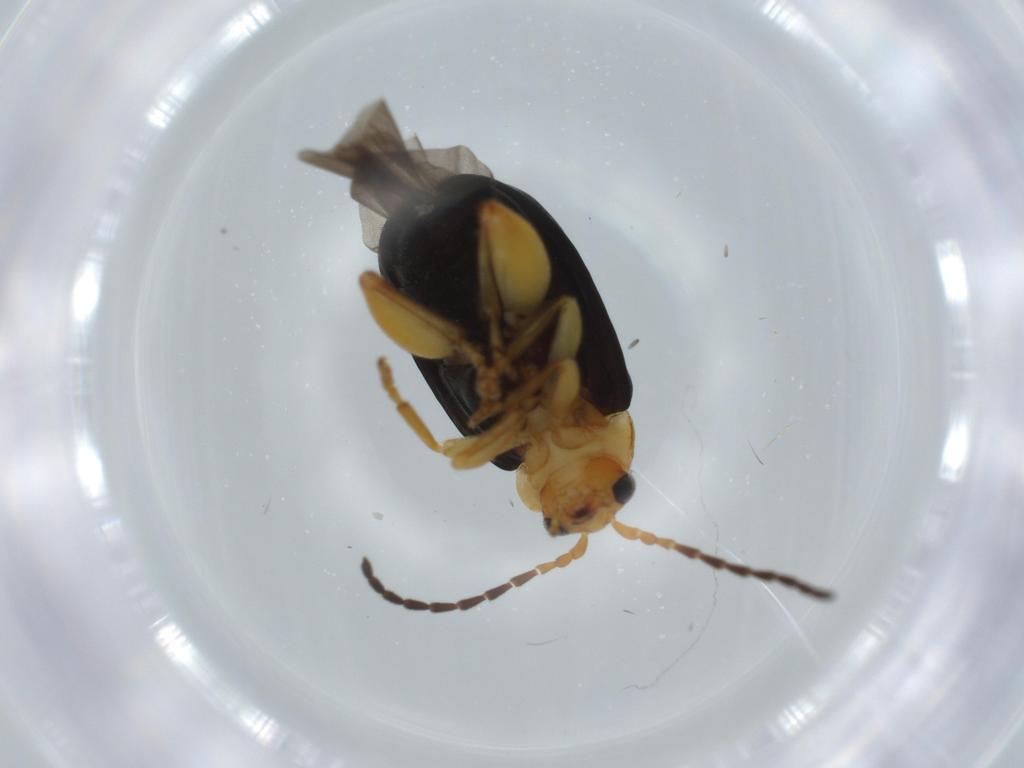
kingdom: Animalia
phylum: Arthropoda
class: Insecta
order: Coleoptera
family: Chrysomelidae
